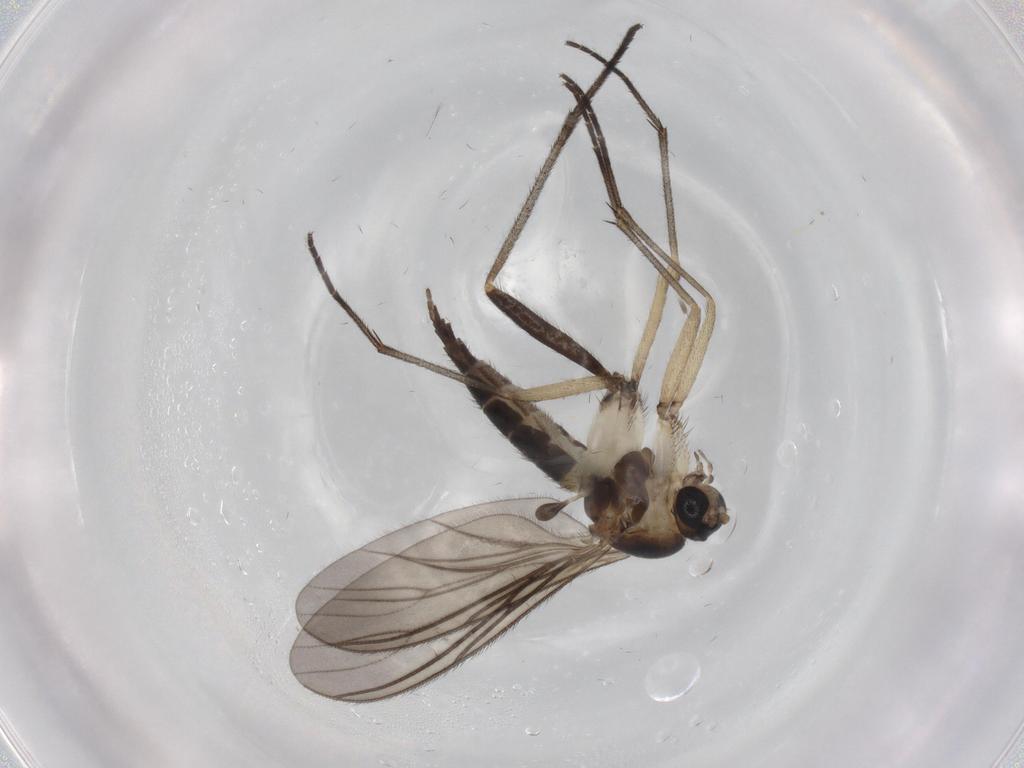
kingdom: Animalia
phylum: Arthropoda
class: Insecta
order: Diptera
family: Sciaridae
